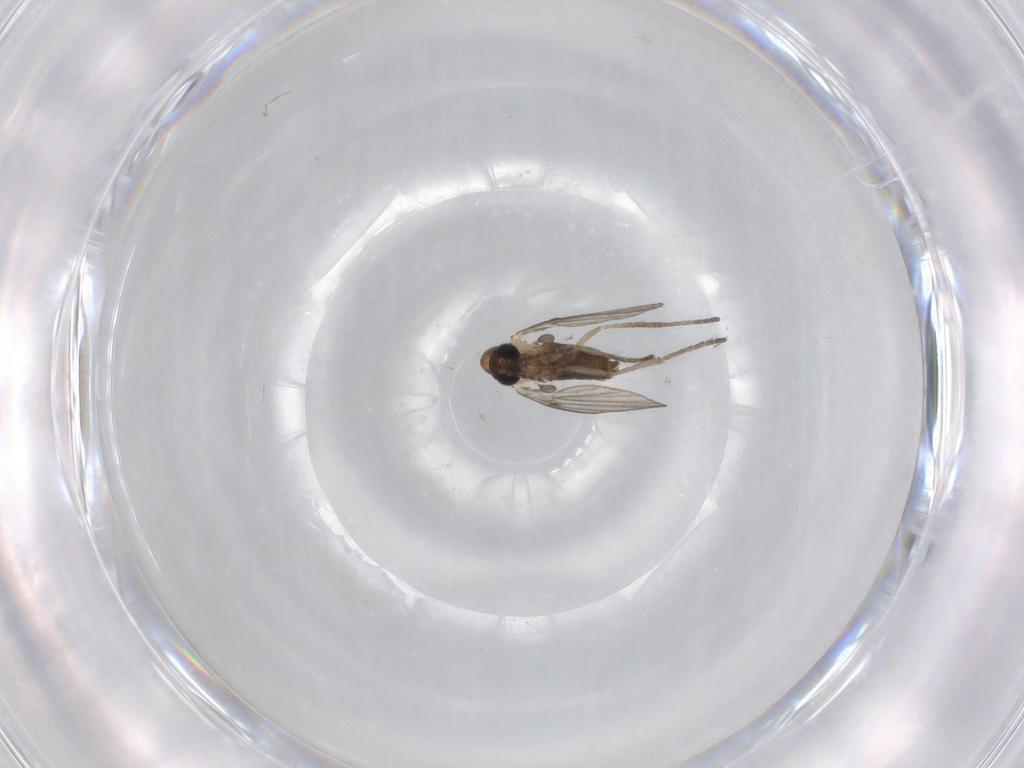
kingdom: Animalia
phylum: Arthropoda
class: Insecta
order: Diptera
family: Chironomidae
